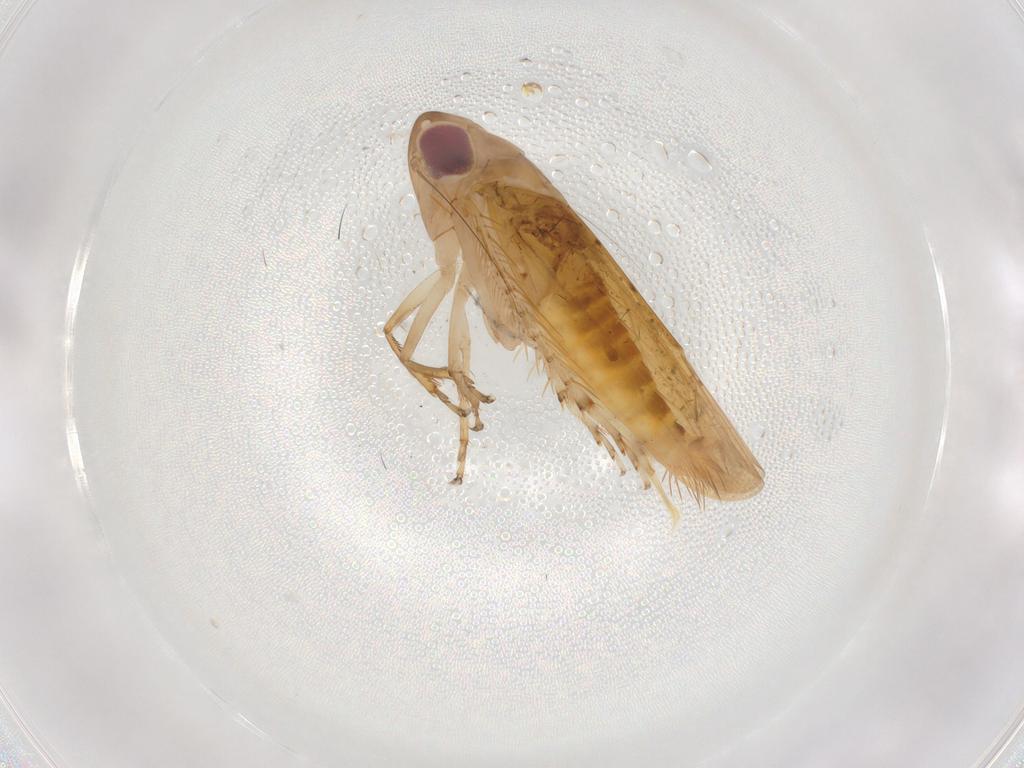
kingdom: Animalia
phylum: Arthropoda
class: Insecta
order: Hemiptera
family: Cicadellidae
